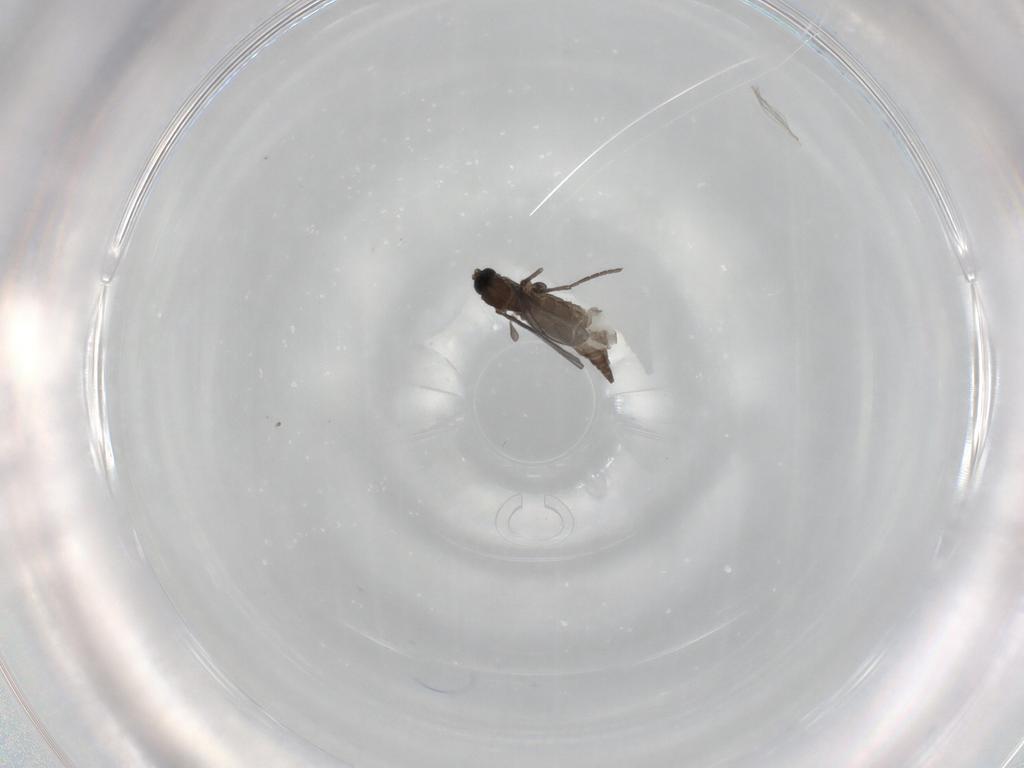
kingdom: Animalia
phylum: Arthropoda
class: Insecta
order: Diptera
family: Cecidomyiidae
